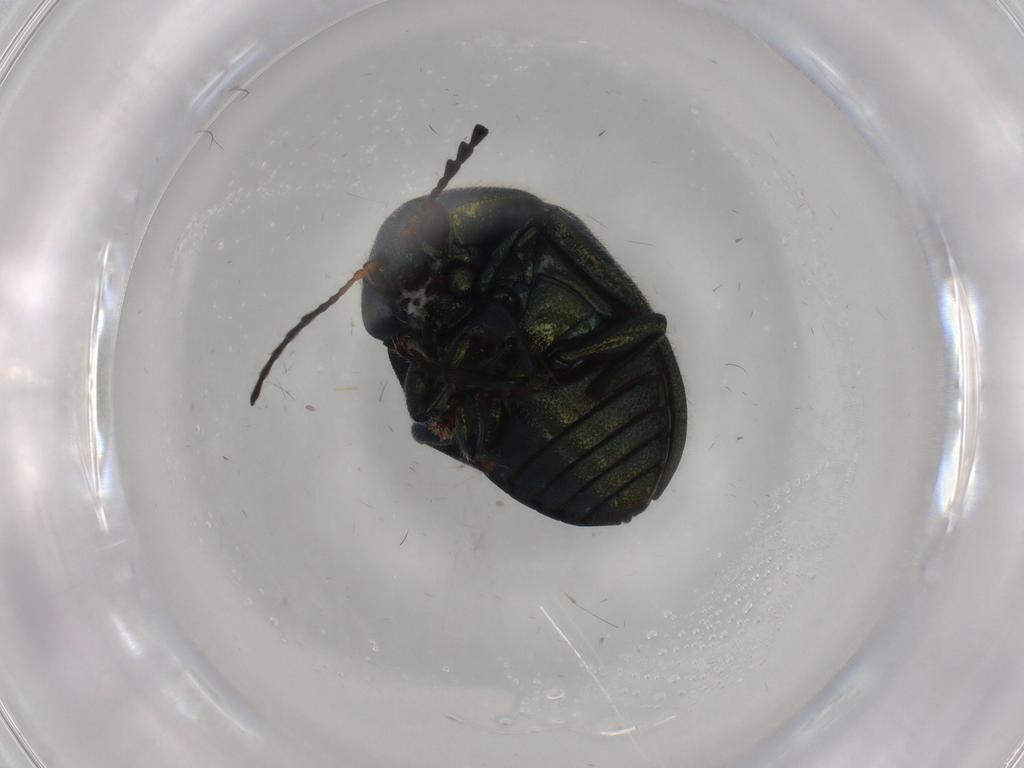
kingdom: Animalia
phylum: Arthropoda
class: Insecta
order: Coleoptera
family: Chrysomelidae
